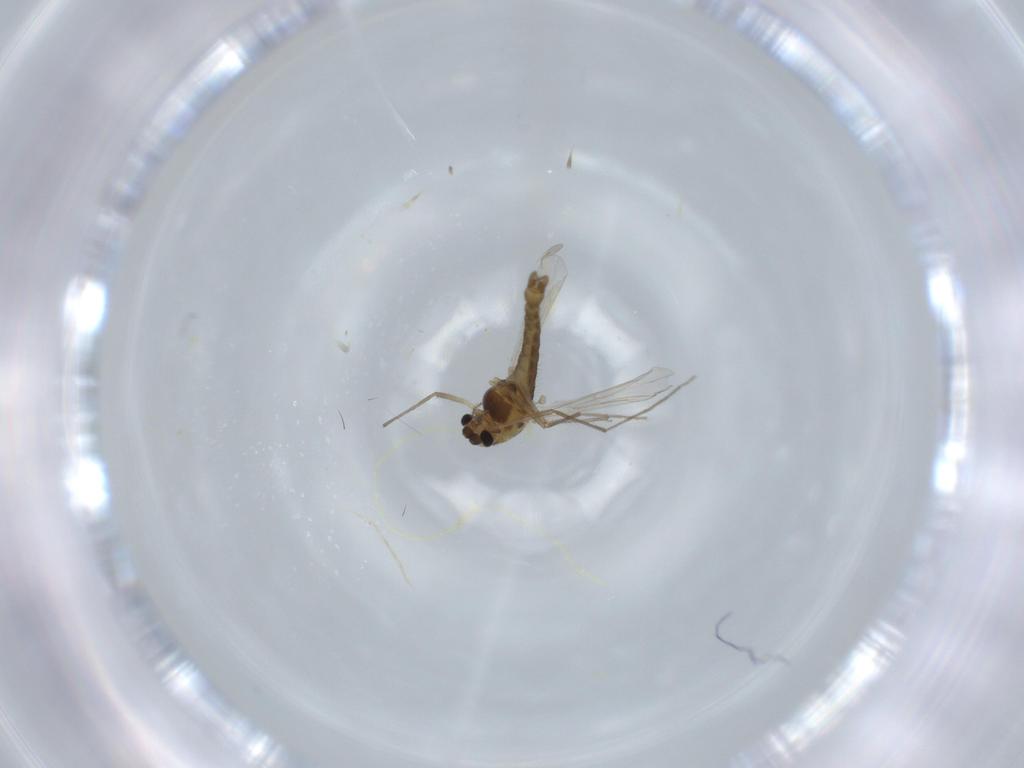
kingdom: Animalia
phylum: Arthropoda
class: Insecta
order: Diptera
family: Chironomidae
